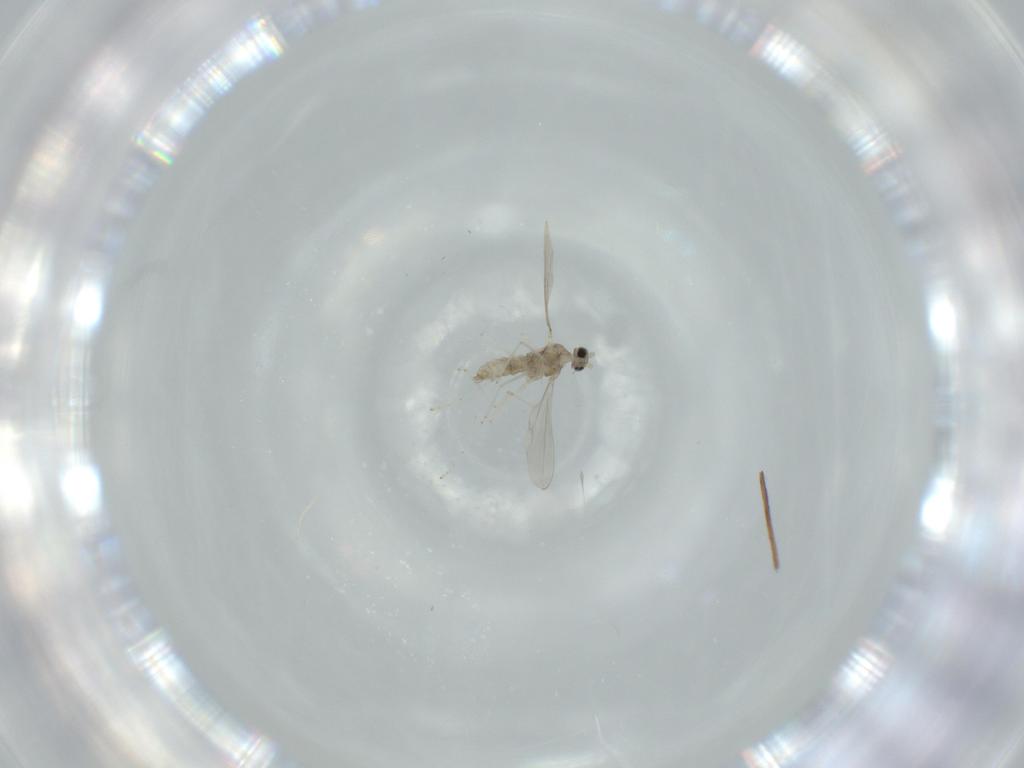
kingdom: Animalia
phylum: Arthropoda
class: Insecta
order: Diptera
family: Cecidomyiidae
